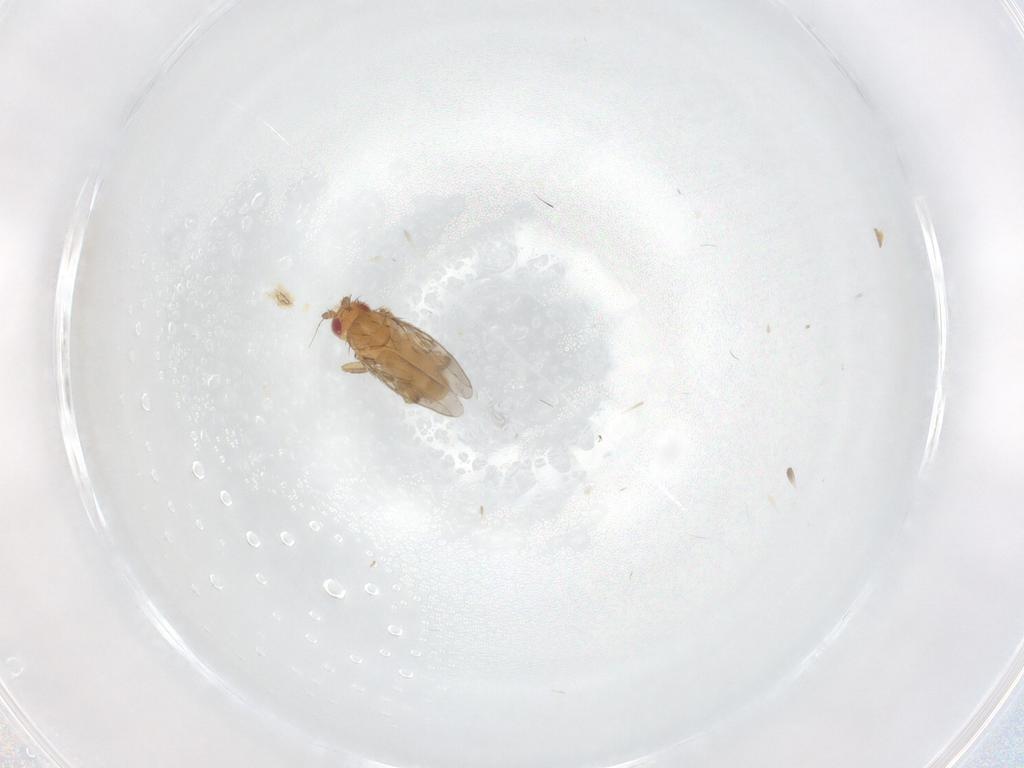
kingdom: Animalia
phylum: Arthropoda
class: Insecta
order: Diptera
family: Sphaeroceridae
